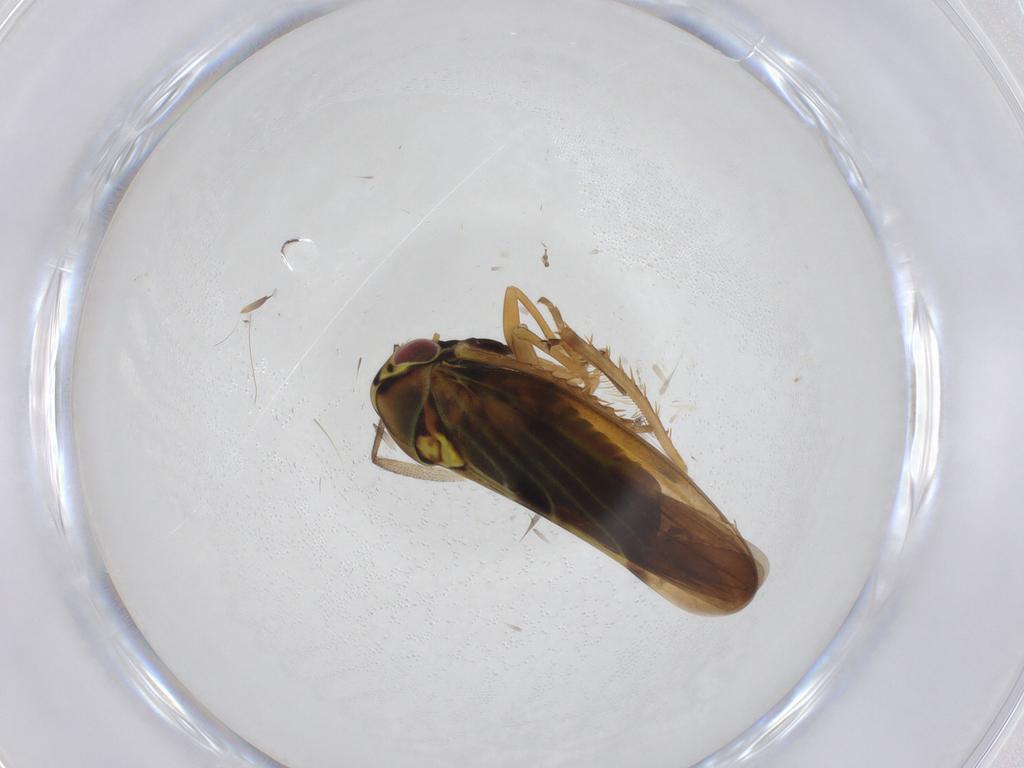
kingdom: Animalia
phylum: Arthropoda
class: Insecta
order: Hemiptera
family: Cicadellidae
